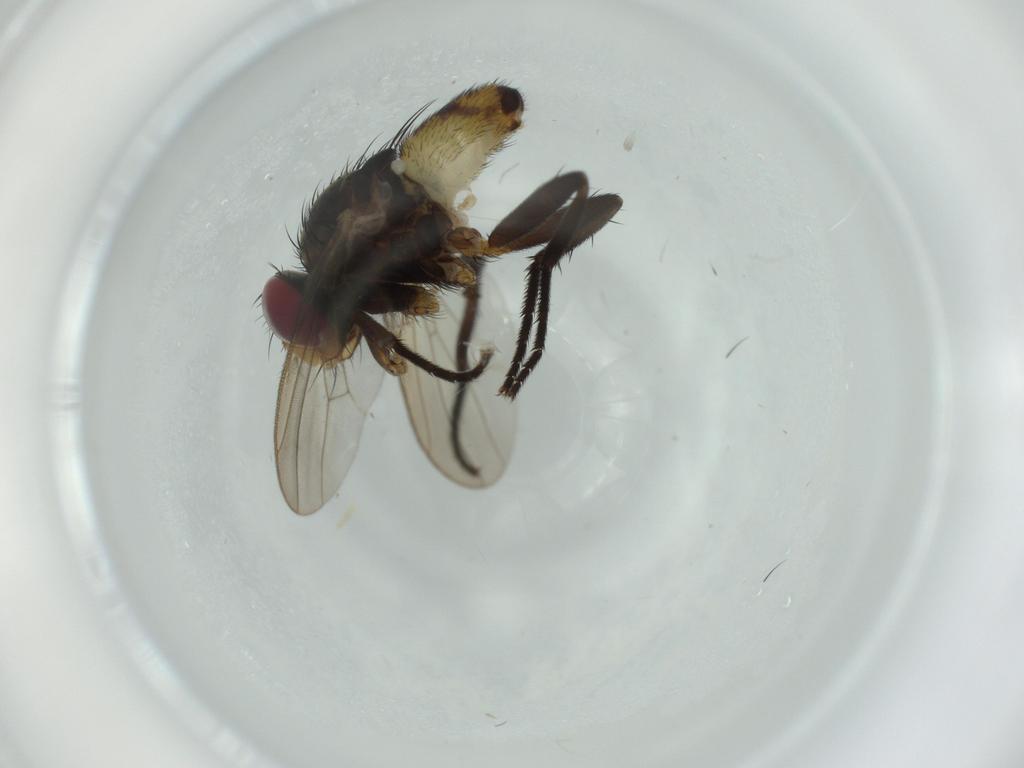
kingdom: Animalia
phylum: Arthropoda
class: Insecta
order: Diptera
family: Anthomyiidae
